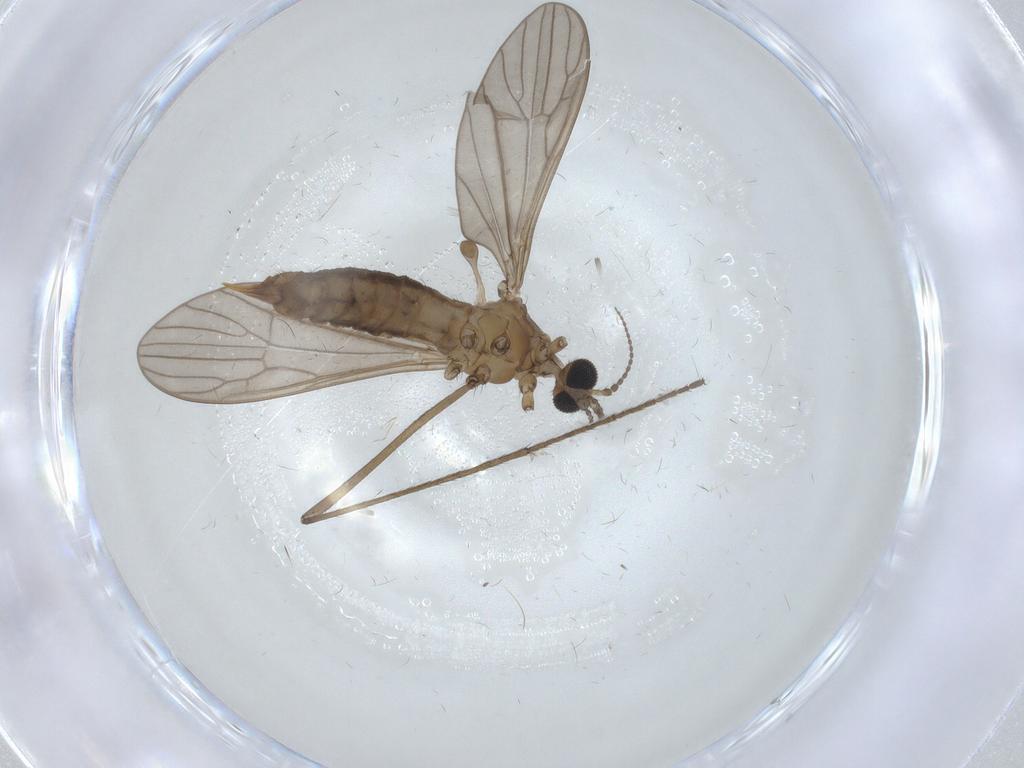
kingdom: Animalia
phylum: Arthropoda
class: Insecta
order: Diptera
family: Limoniidae
